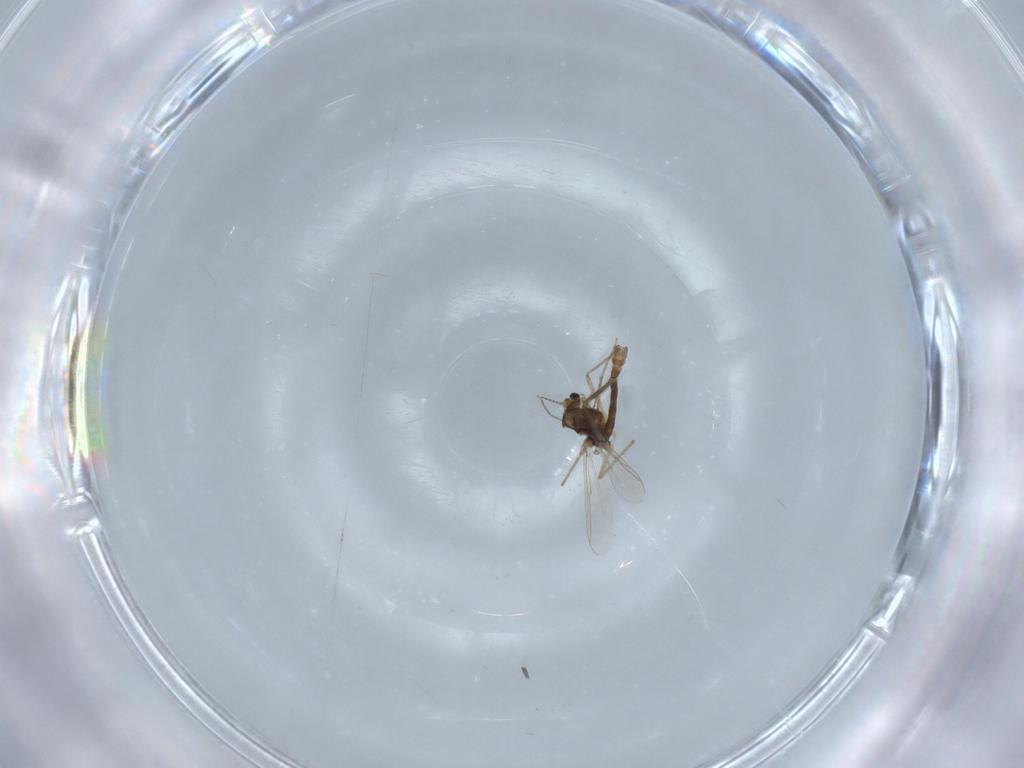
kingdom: Animalia
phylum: Arthropoda
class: Insecta
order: Diptera
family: Chironomidae
